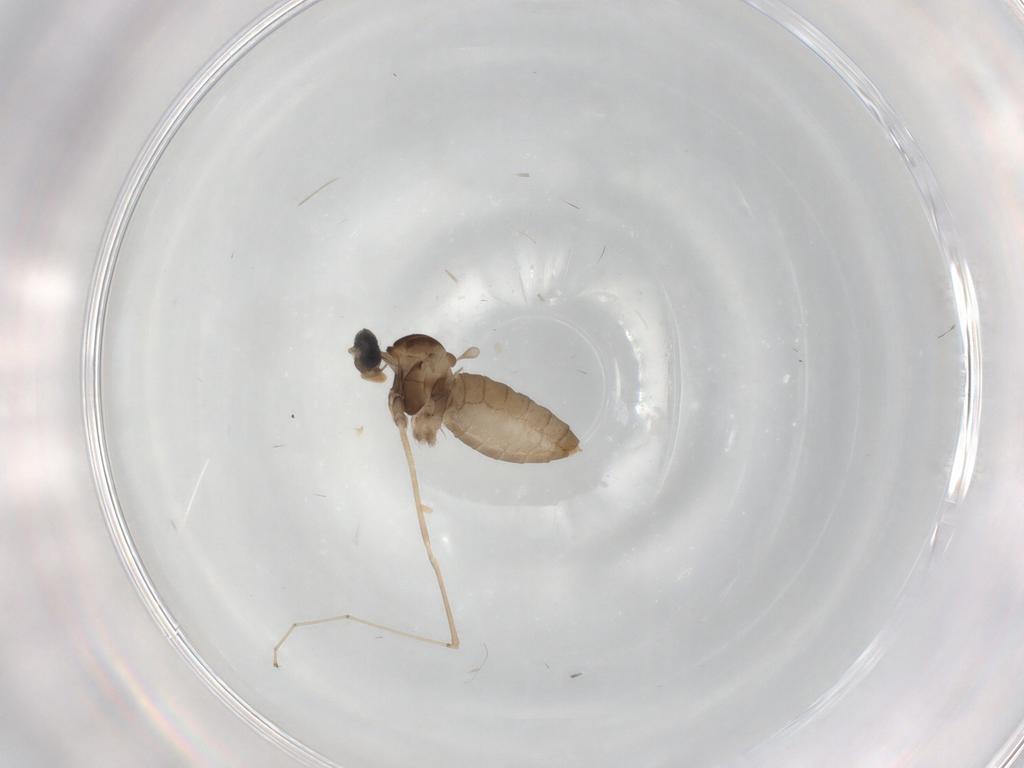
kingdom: Animalia
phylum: Arthropoda
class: Insecta
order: Diptera
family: Cecidomyiidae
